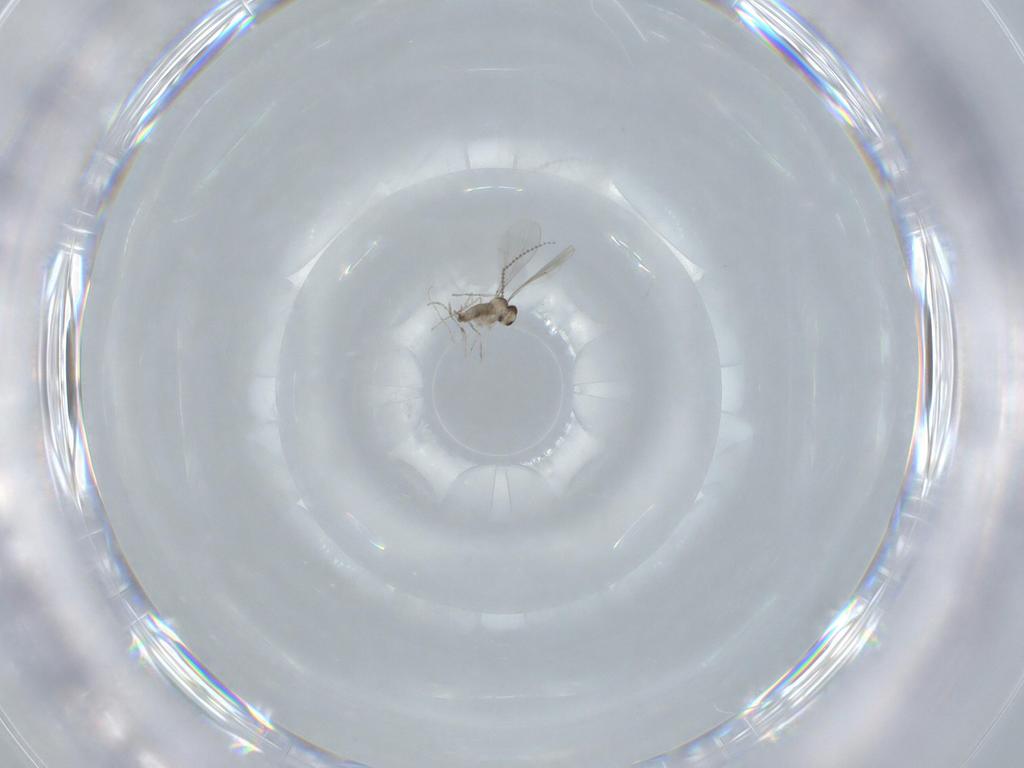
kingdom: Animalia
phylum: Arthropoda
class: Insecta
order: Diptera
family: Cecidomyiidae
